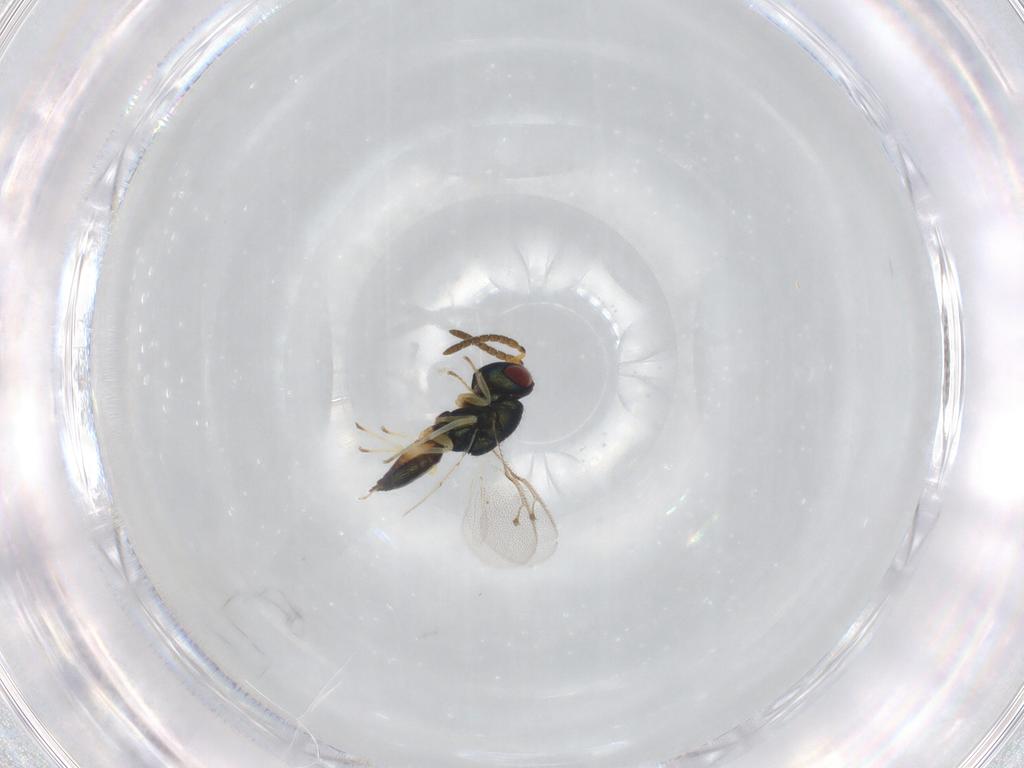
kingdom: Animalia
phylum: Arthropoda
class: Insecta
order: Hymenoptera
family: Pteromalidae
